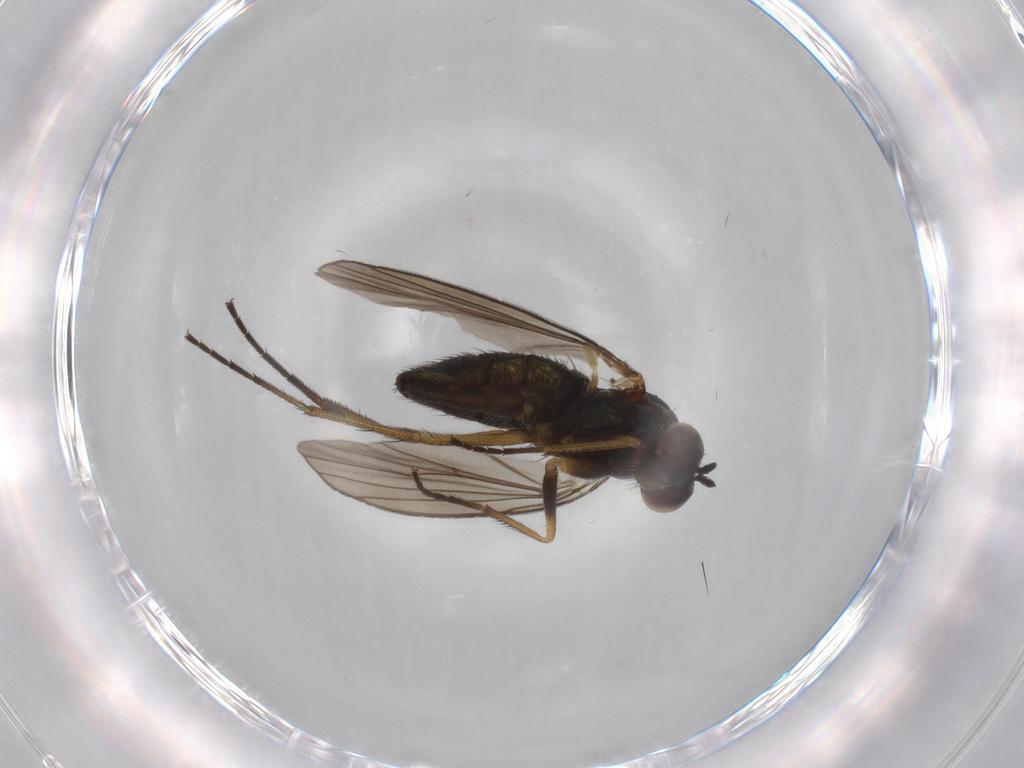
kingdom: Animalia
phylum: Arthropoda
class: Insecta
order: Diptera
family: Dolichopodidae
